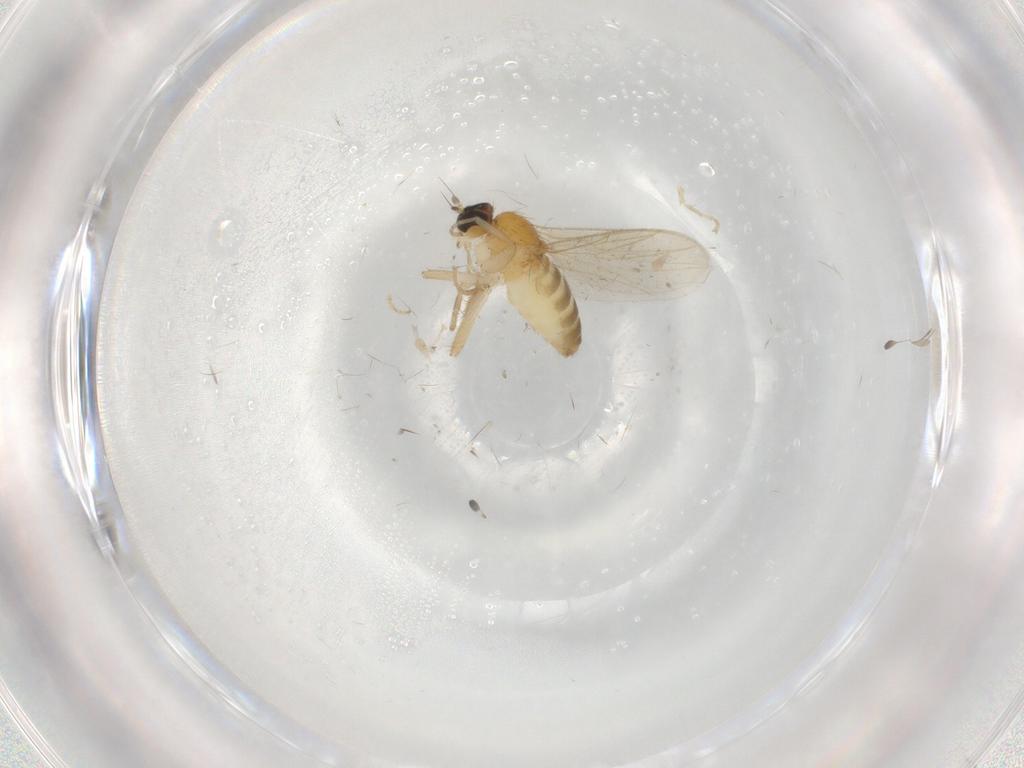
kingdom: Animalia
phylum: Arthropoda
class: Insecta
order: Diptera
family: Hybotidae
